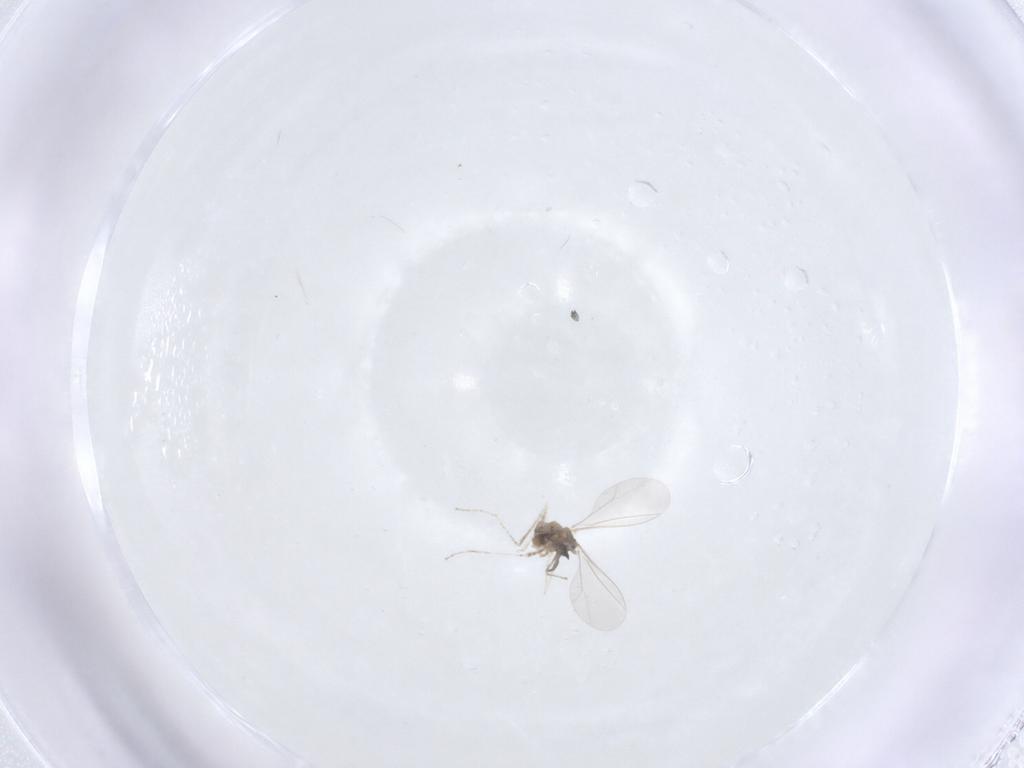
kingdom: Animalia
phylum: Arthropoda
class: Insecta
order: Diptera
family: Cecidomyiidae
